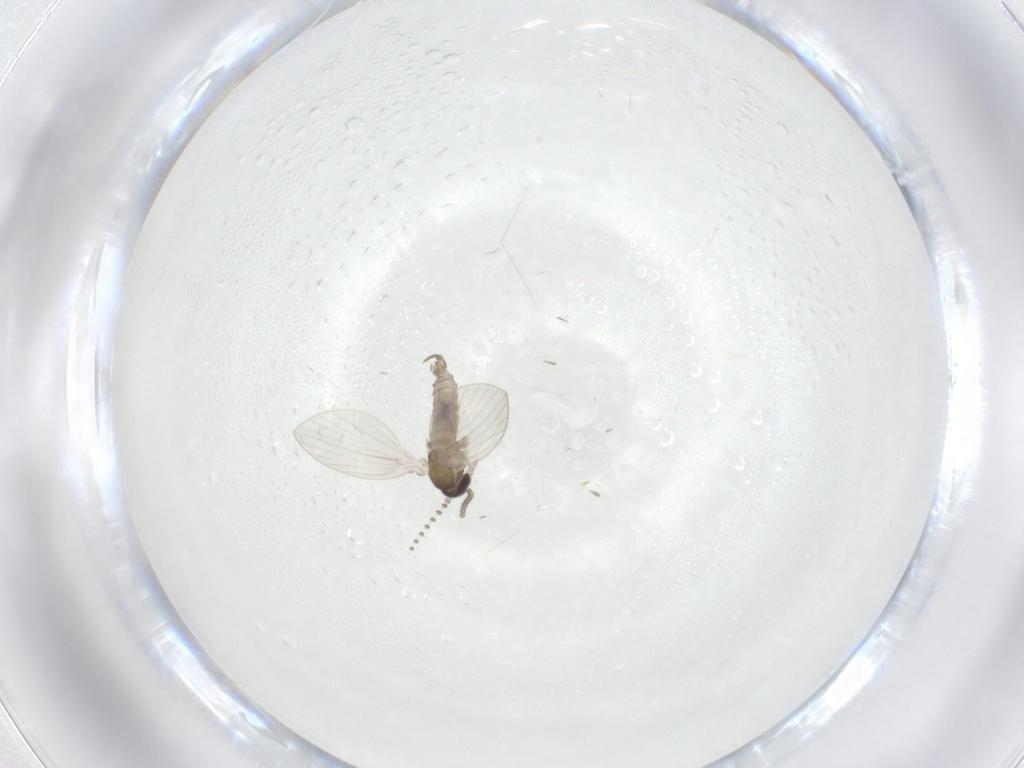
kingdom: Animalia
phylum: Arthropoda
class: Insecta
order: Diptera
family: Psychodidae
